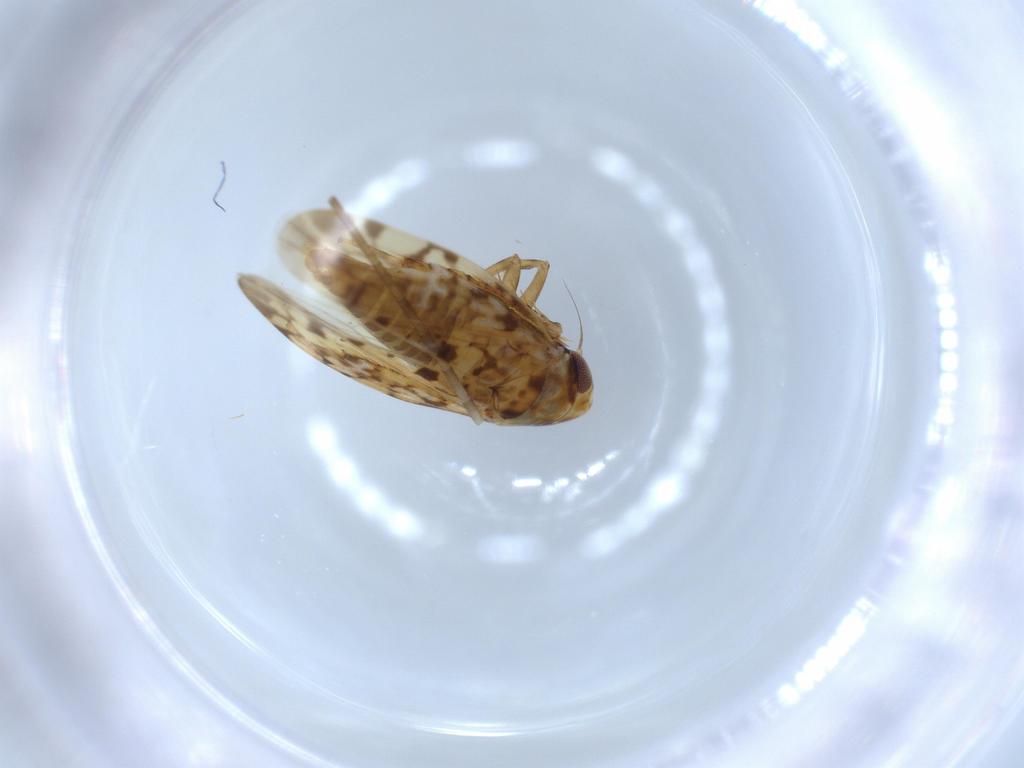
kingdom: Animalia
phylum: Arthropoda
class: Insecta
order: Hemiptera
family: Cicadellidae
